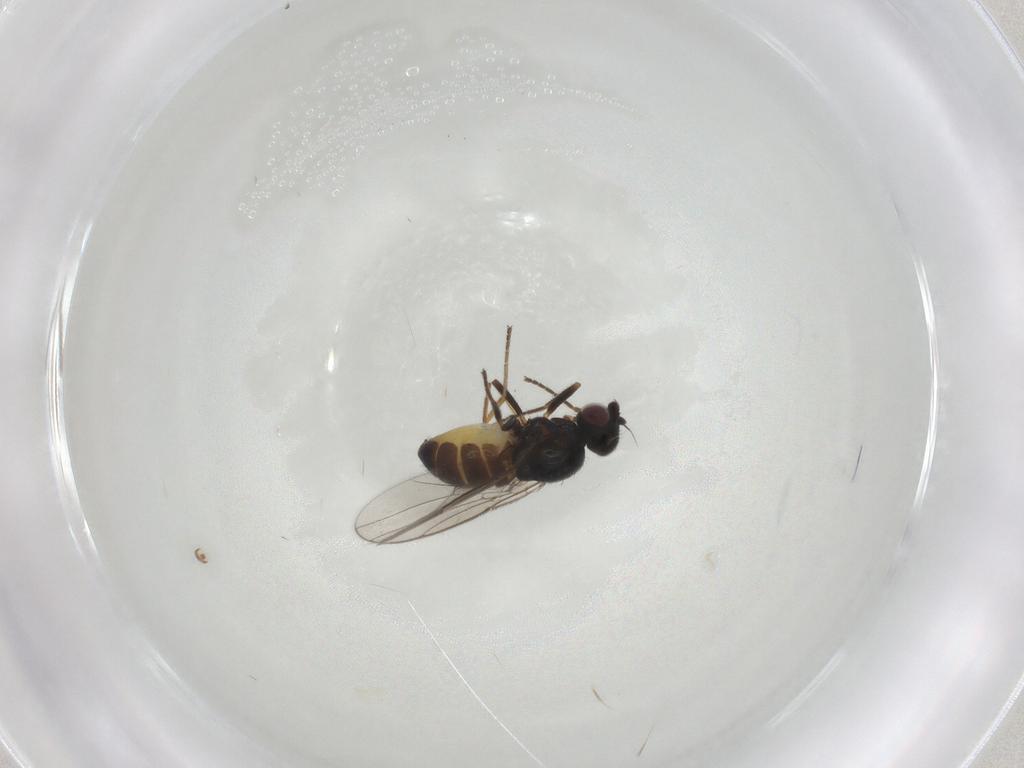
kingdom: Animalia
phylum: Arthropoda
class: Insecta
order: Diptera
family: Chloropidae
